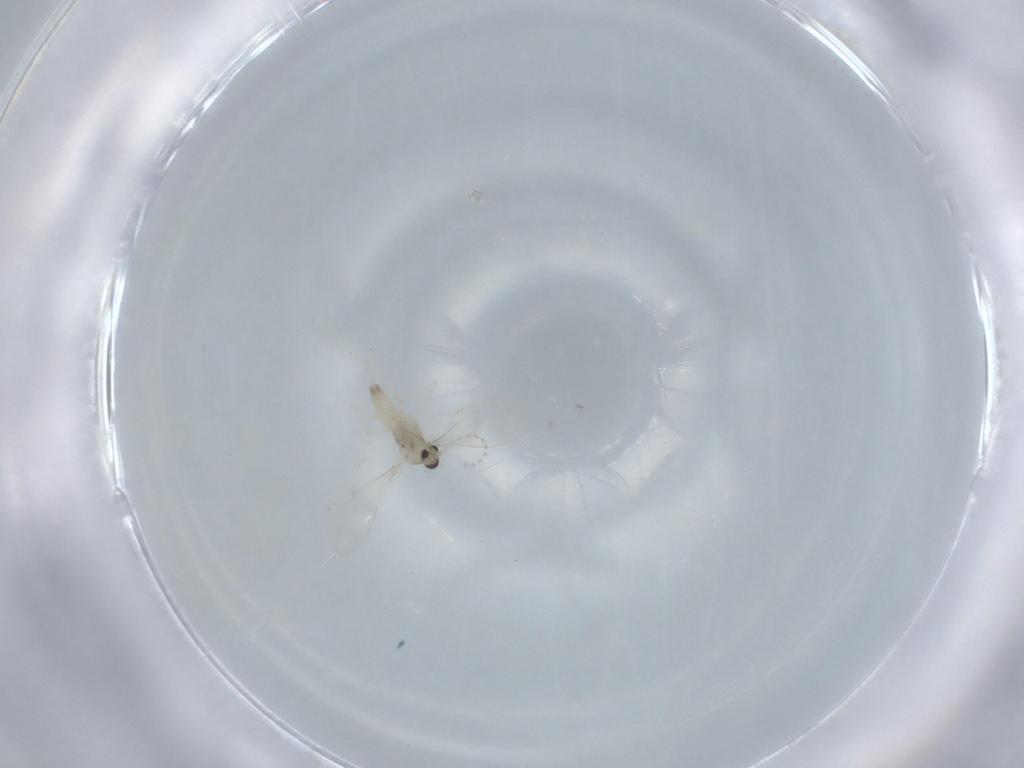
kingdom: Animalia
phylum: Arthropoda
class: Insecta
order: Diptera
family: Cecidomyiidae
